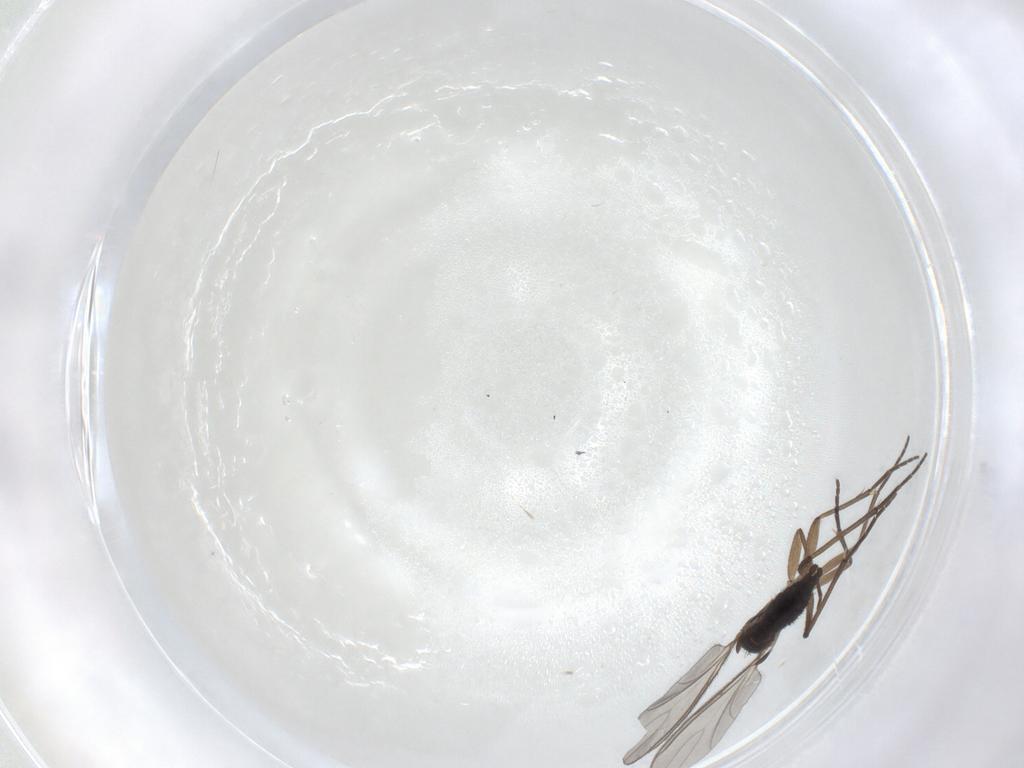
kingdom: Animalia
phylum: Arthropoda
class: Insecta
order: Diptera
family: Sciaridae
